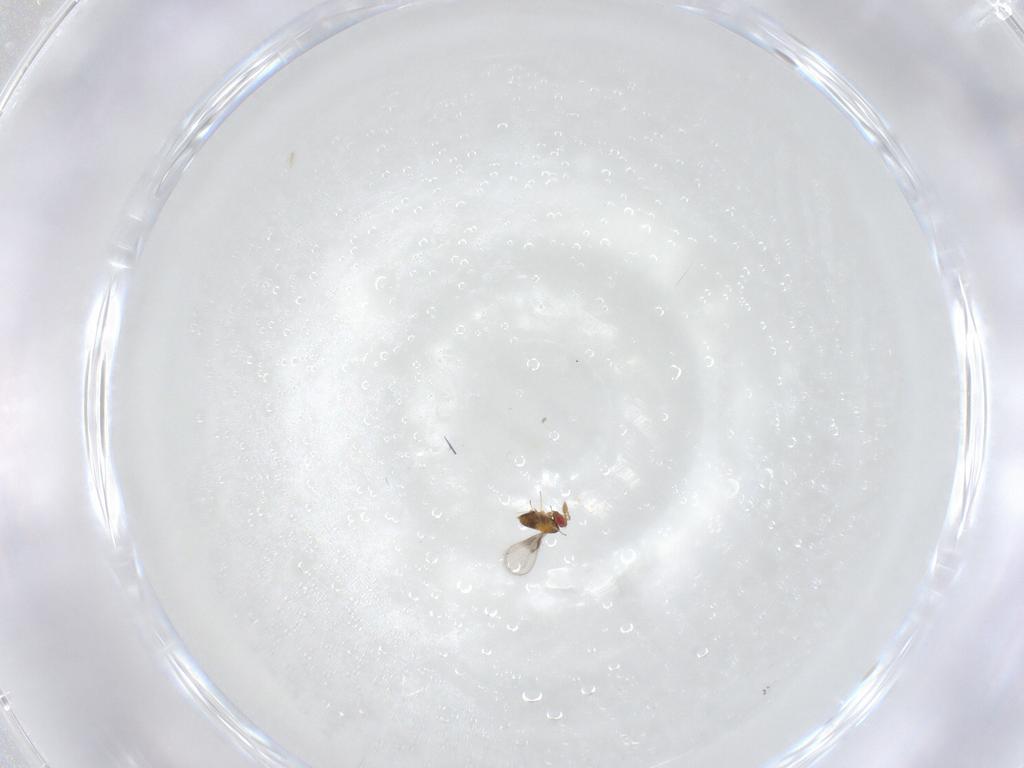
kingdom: Animalia
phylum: Arthropoda
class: Insecta
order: Hymenoptera
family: Trichogrammatidae
